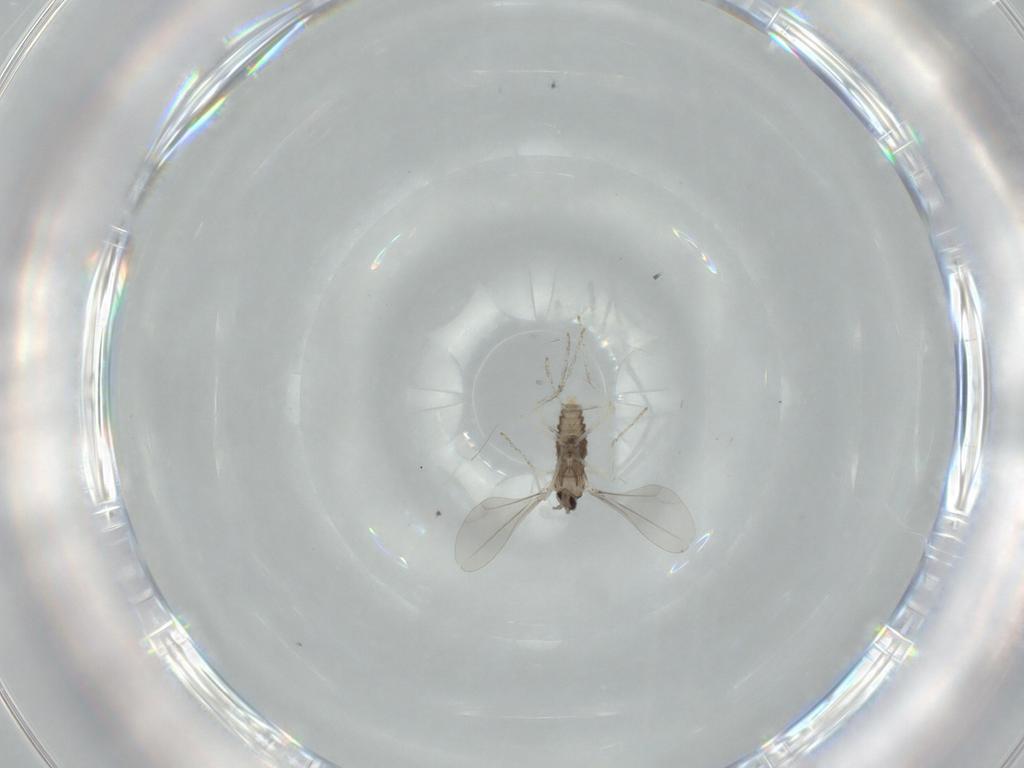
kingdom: Animalia
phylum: Arthropoda
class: Insecta
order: Diptera
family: Cecidomyiidae
